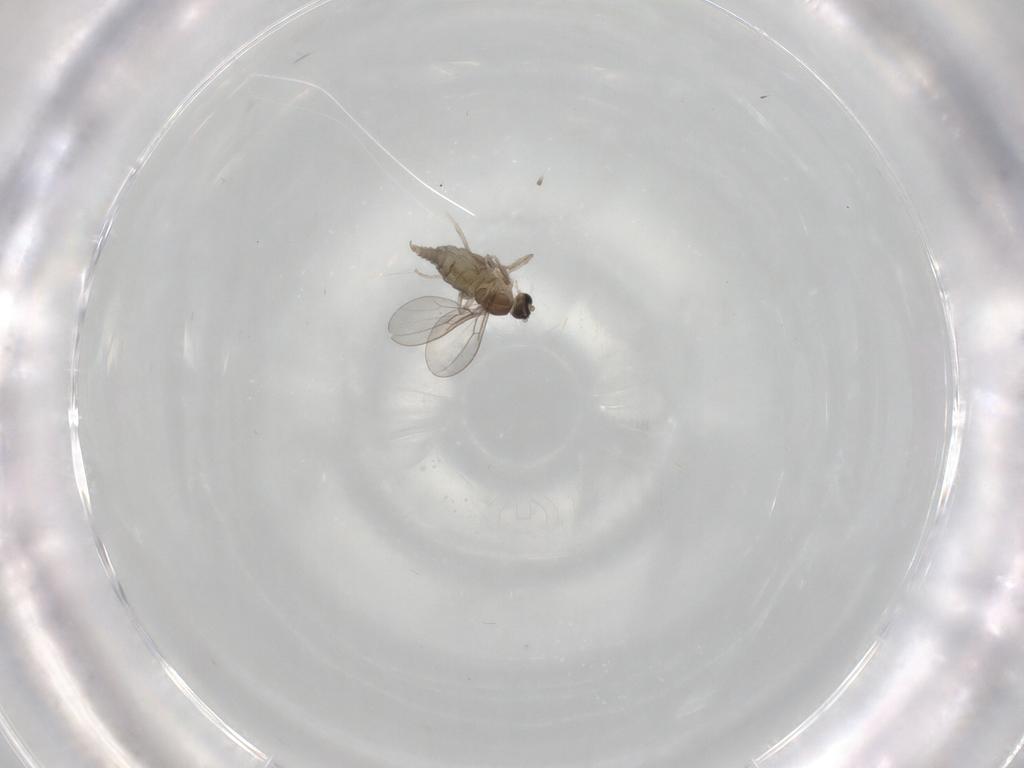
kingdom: Animalia
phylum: Arthropoda
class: Insecta
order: Diptera
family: Cecidomyiidae
